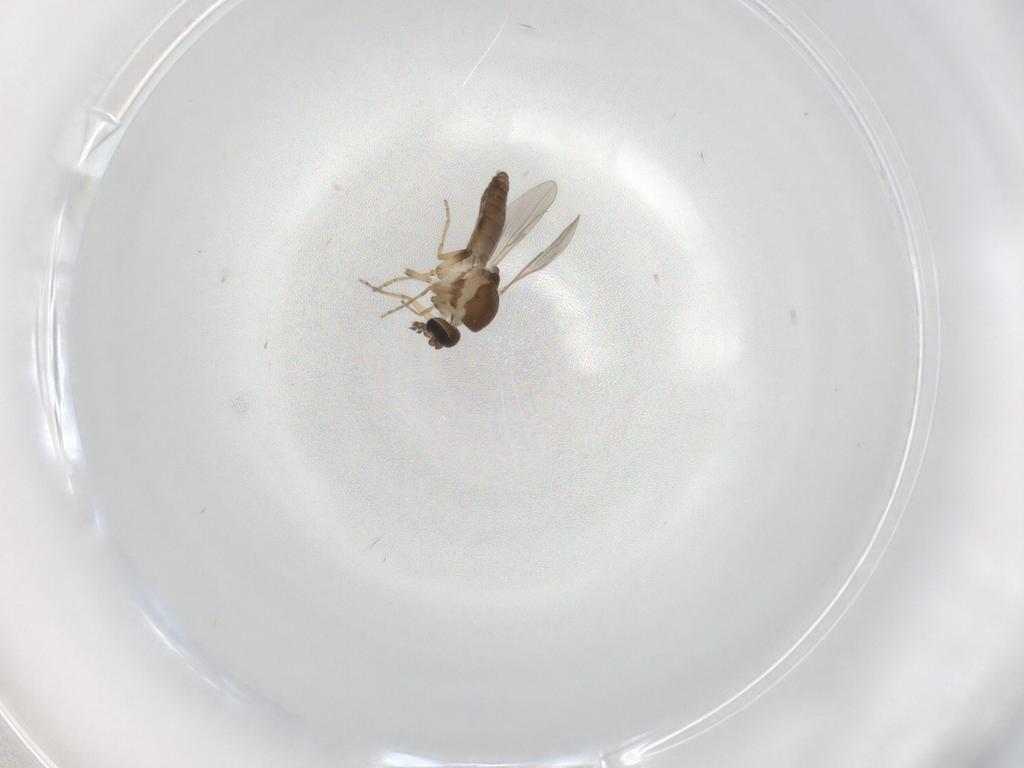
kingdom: Animalia
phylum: Arthropoda
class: Insecta
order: Diptera
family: Ceratopogonidae
